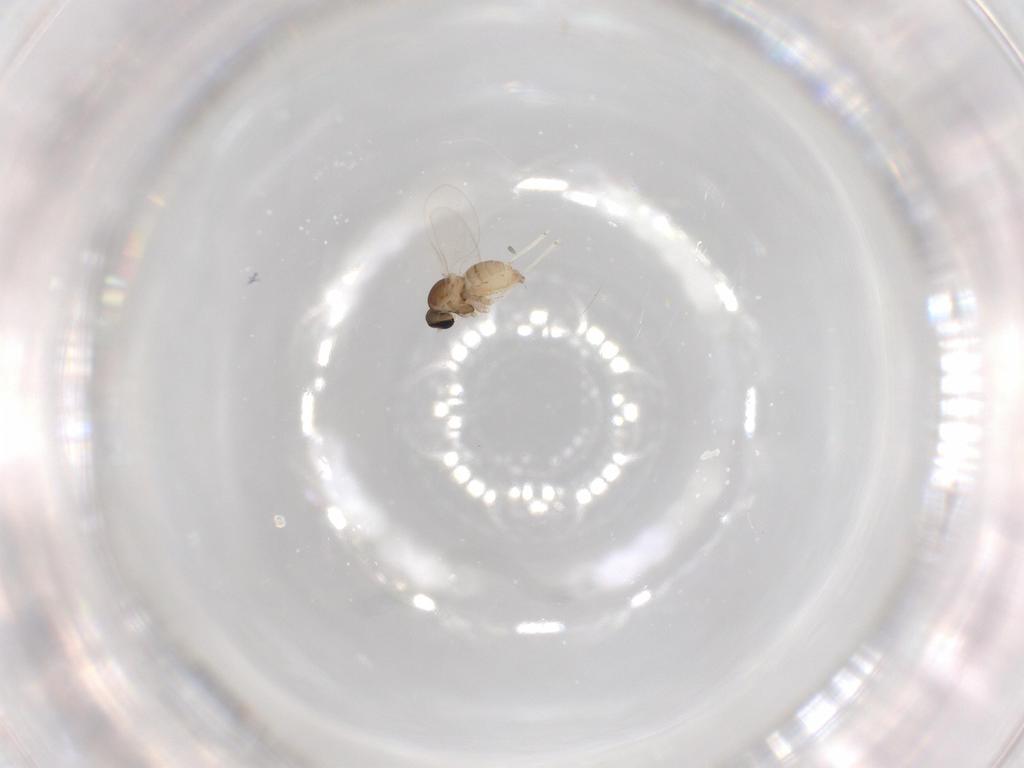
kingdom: Animalia
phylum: Arthropoda
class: Insecta
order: Diptera
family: Cecidomyiidae
